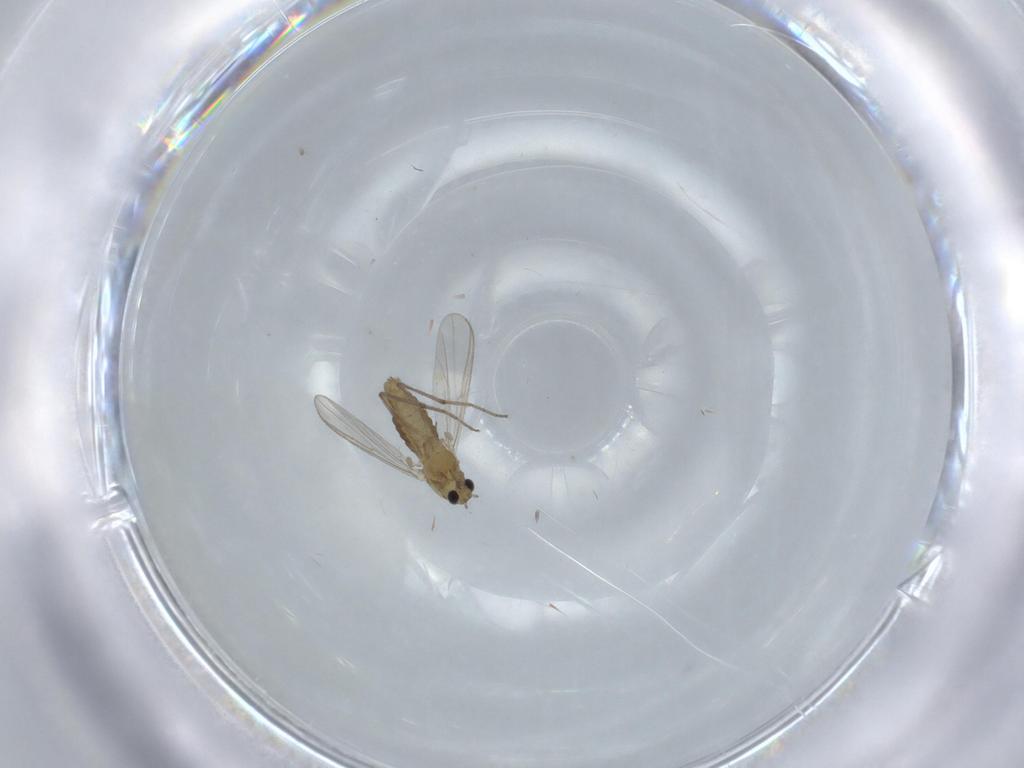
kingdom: Animalia
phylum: Arthropoda
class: Insecta
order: Diptera
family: Chironomidae
